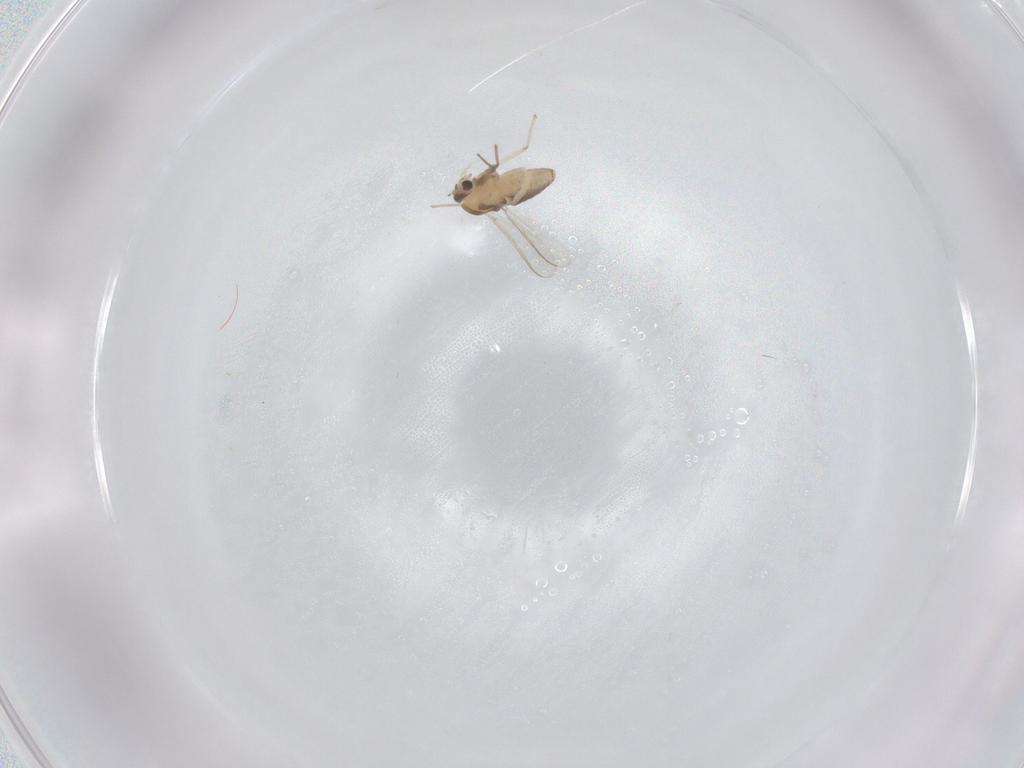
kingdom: Animalia
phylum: Arthropoda
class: Insecta
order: Diptera
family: Chironomidae
